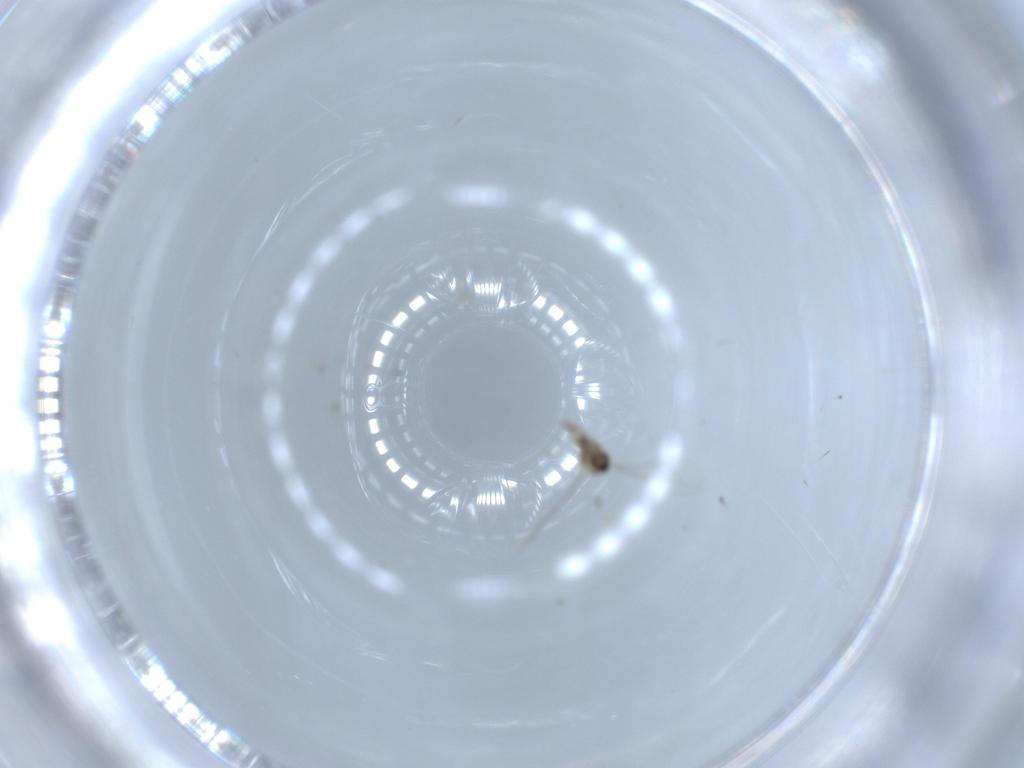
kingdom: Animalia
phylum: Arthropoda
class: Insecta
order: Diptera
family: Cecidomyiidae
